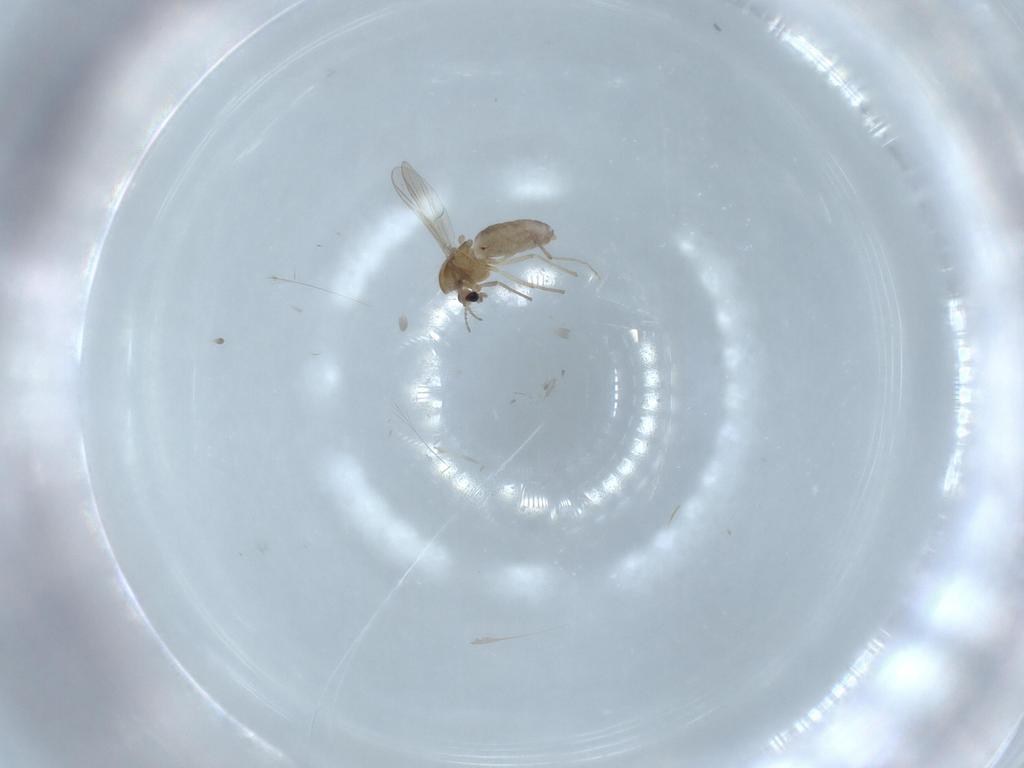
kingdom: Animalia
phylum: Arthropoda
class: Insecta
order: Diptera
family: Chironomidae
